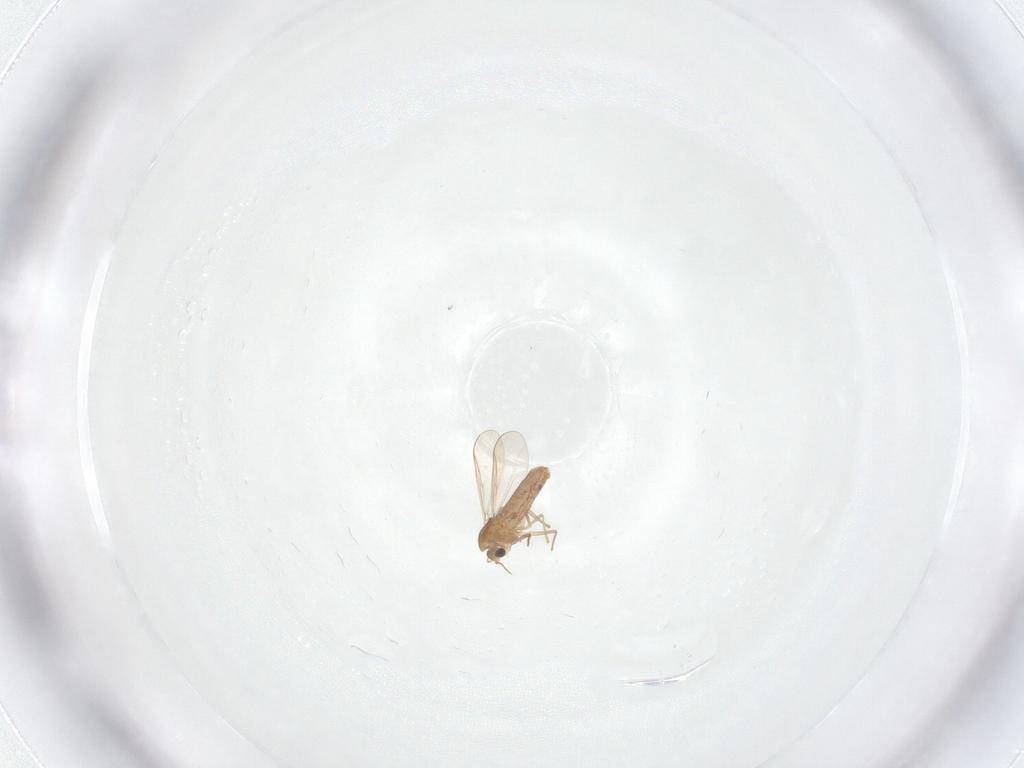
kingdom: Animalia
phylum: Arthropoda
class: Insecta
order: Diptera
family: Chironomidae
